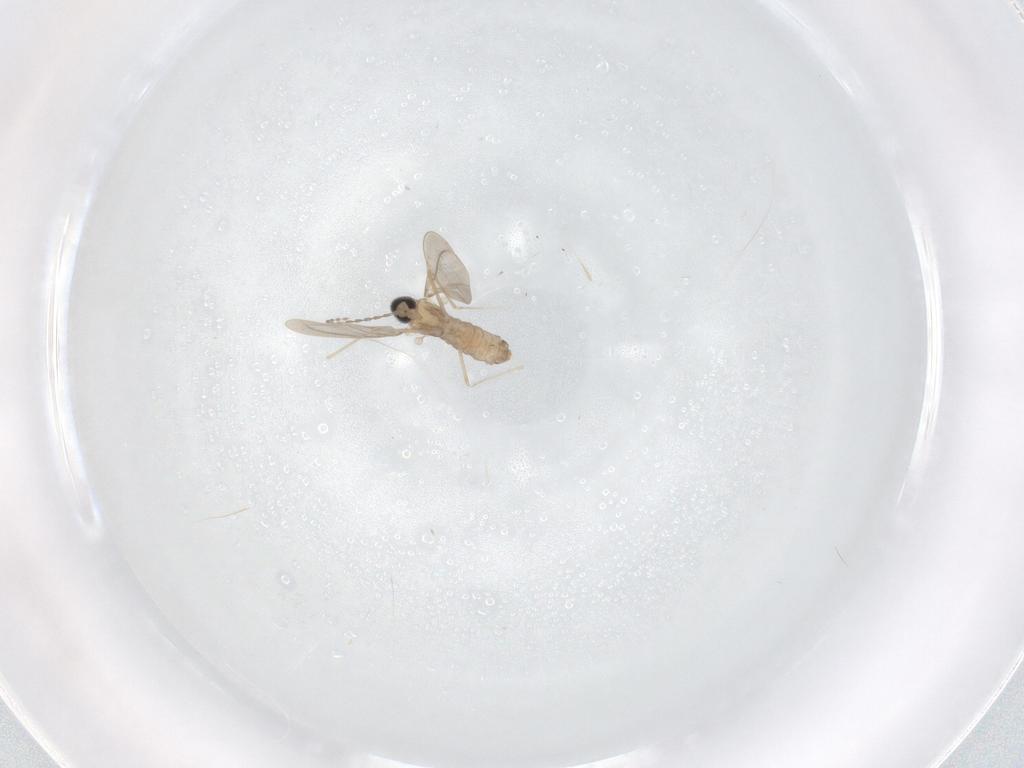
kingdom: Animalia
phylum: Arthropoda
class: Insecta
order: Diptera
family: Cecidomyiidae
